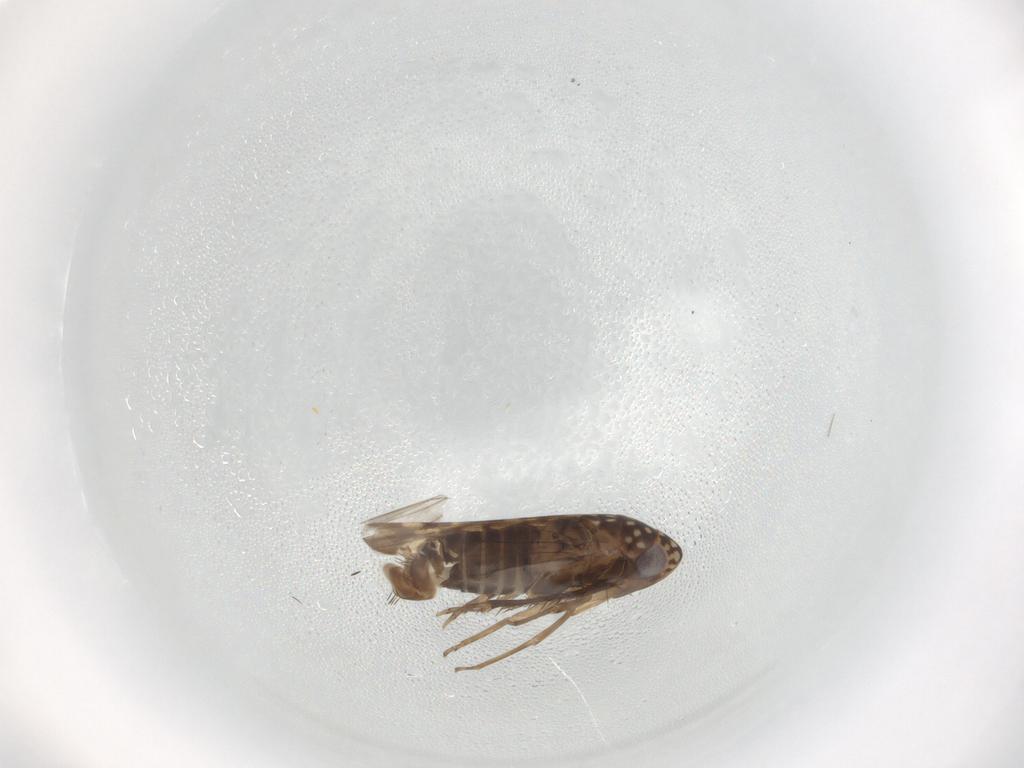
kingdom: Animalia
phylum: Arthropoda
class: Insecta
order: Hemiptera
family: Cicadellidae
